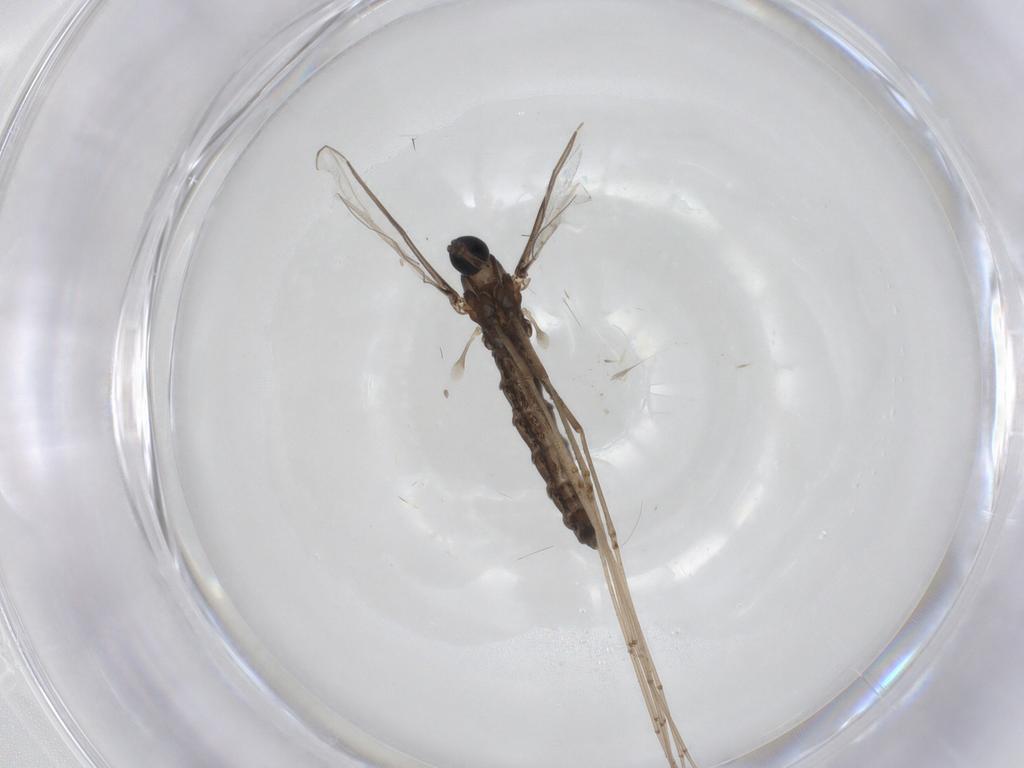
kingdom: Animalia
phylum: Arthropoda
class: Insecta
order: Diptera
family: Cecidomyiidae
